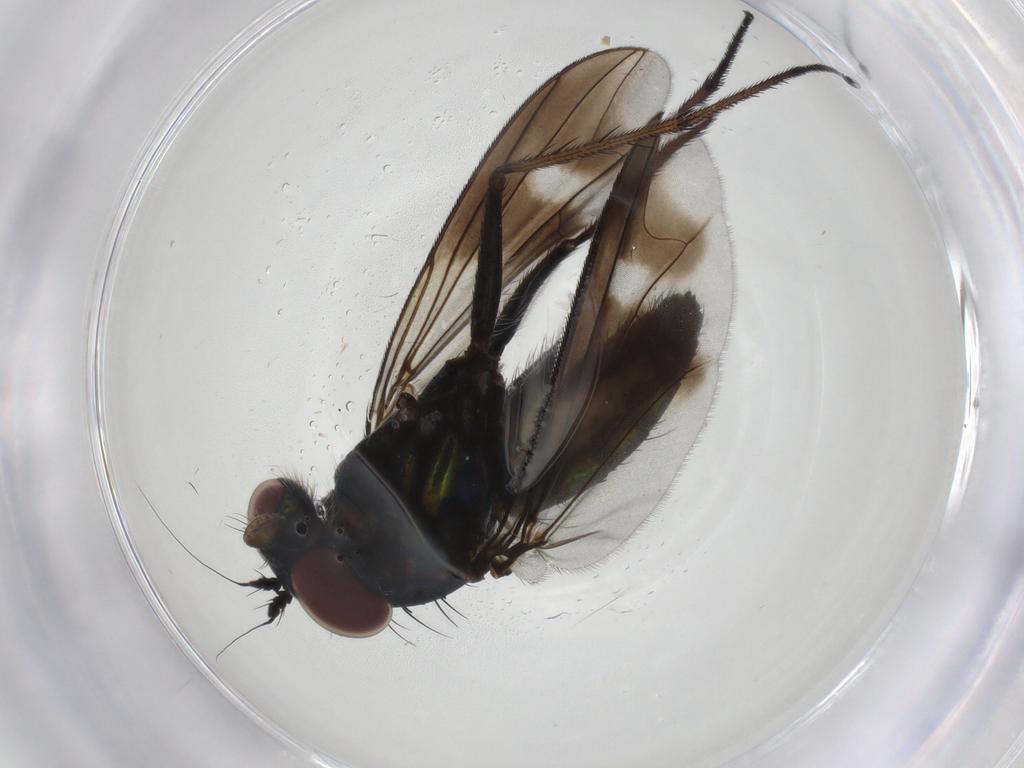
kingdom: Animalia
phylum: Arthropoda
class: Insecta
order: Diptera
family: Dolichopodidae
